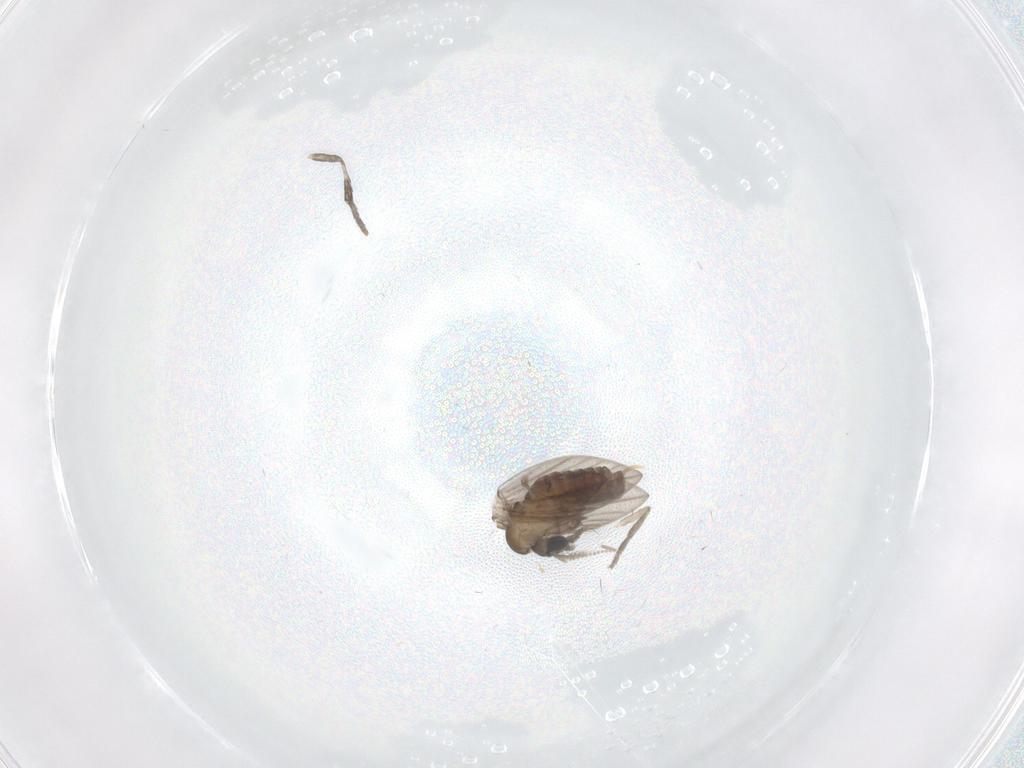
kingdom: Animalia
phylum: Arthropoda
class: Insecta
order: Diptera
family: Psychodidae
